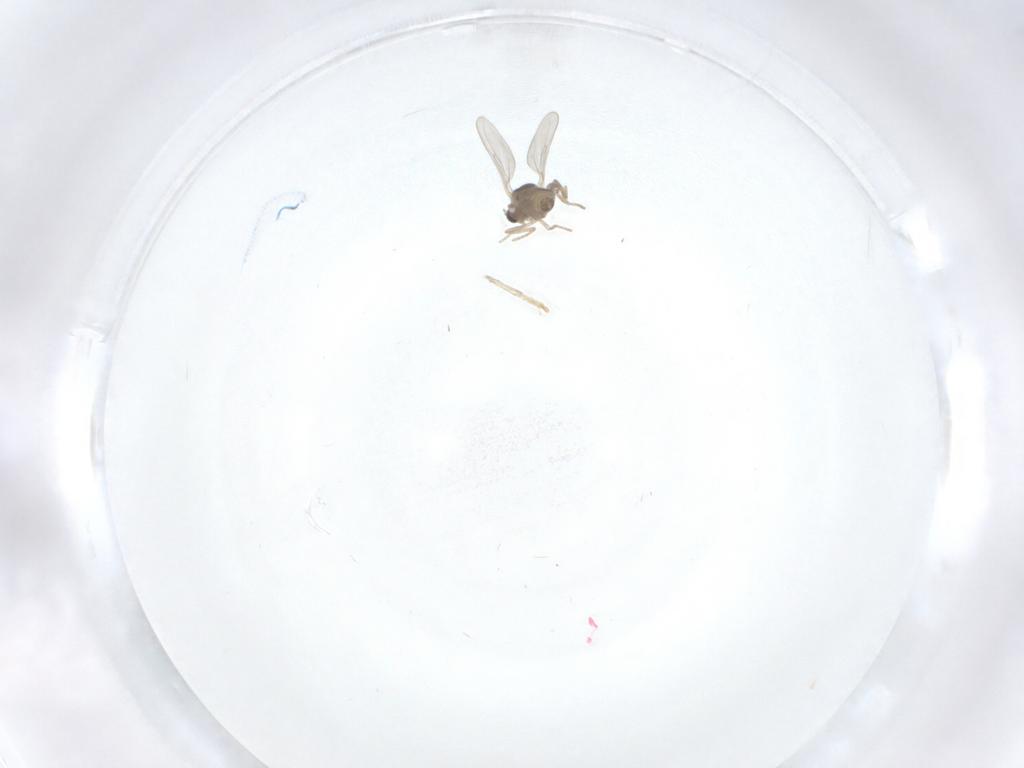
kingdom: Animalia
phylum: Arthropoda
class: Insecta
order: Diptera
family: Cecidomyiidae
